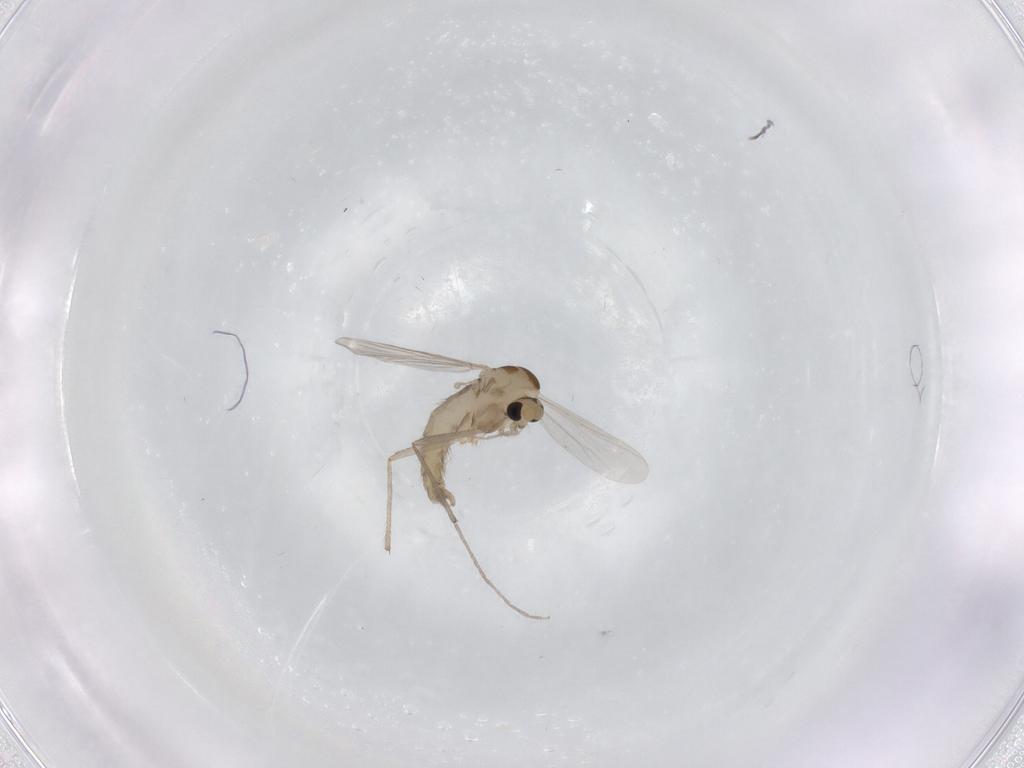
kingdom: Animalia
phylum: Arthropoda
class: Insecta
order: Diptera
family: Chironomidae
